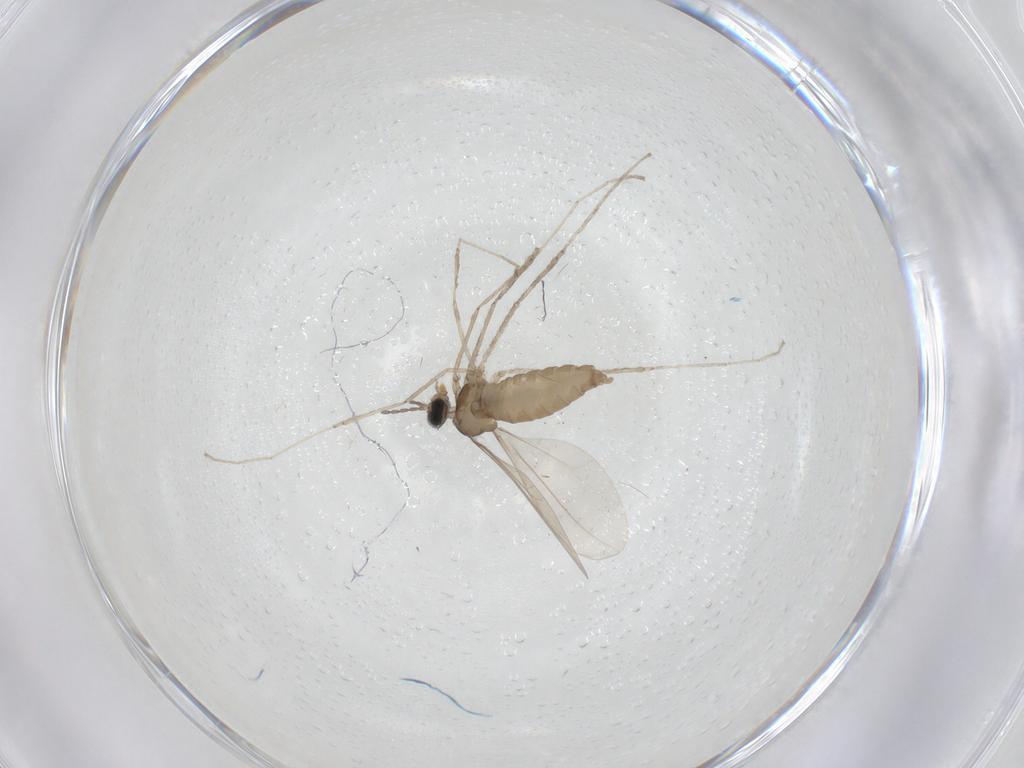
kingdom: Animalia
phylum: Arthropoda
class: Insecta
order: Diptera
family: Cecidomyiidae
